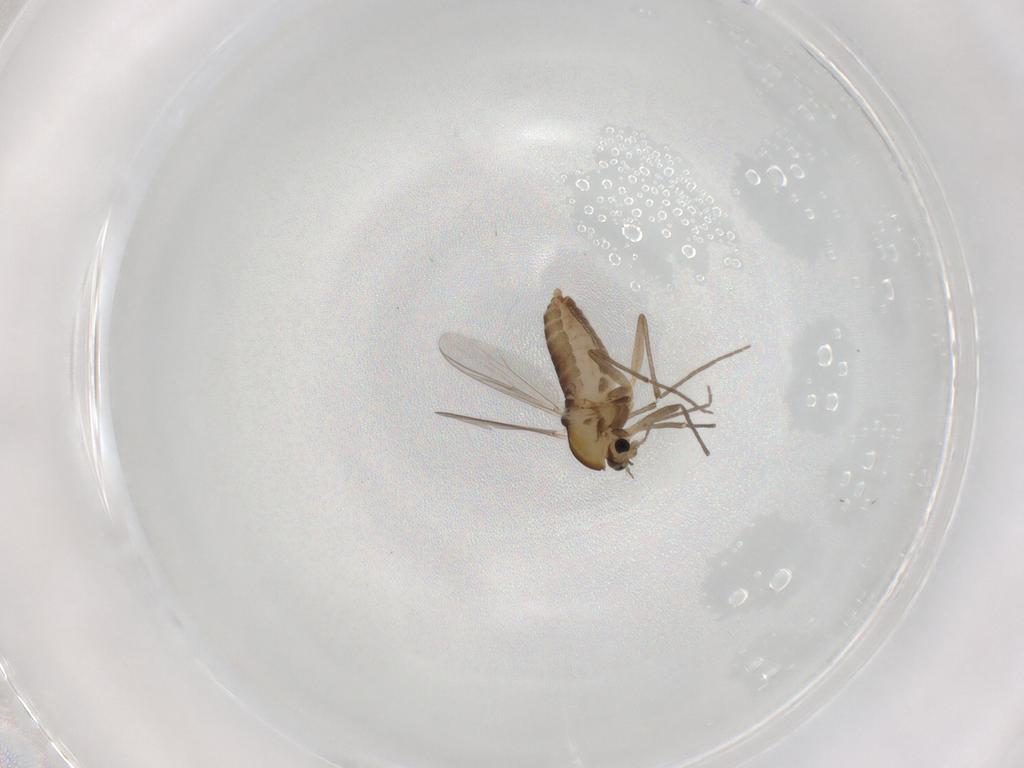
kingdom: Animalia
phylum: Arthropoda
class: Insecta
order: Diptera
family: Chironomidae
